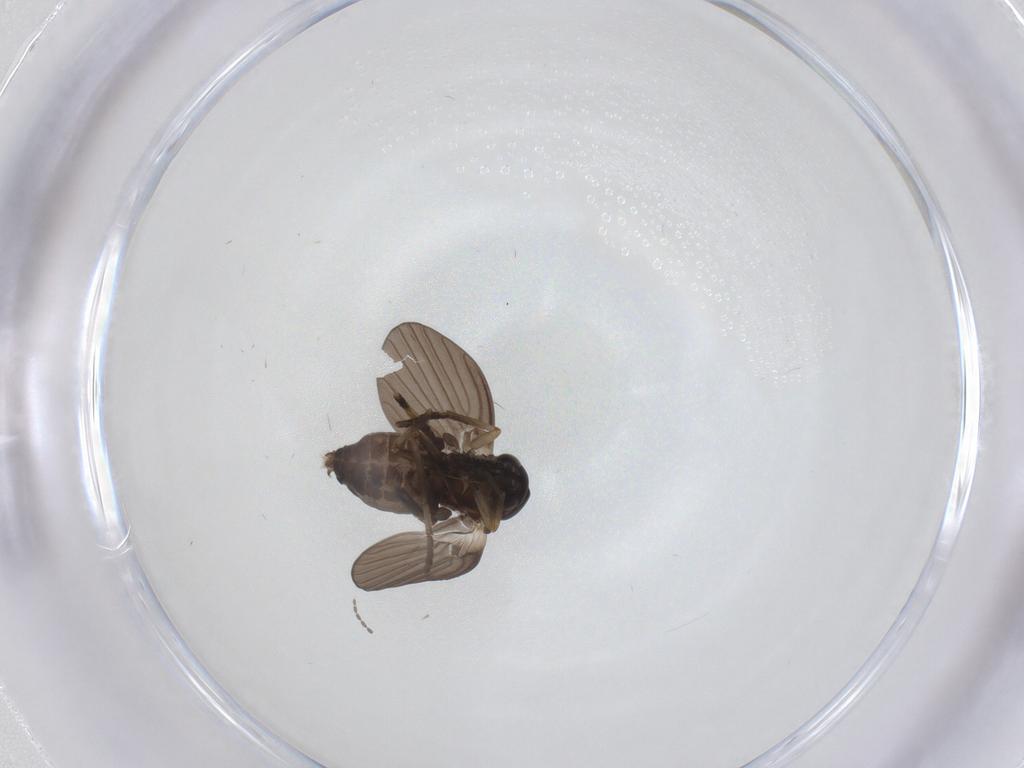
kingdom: Animalia
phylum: Arthropoda
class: Insecta
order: Diptera
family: Psychodidae
